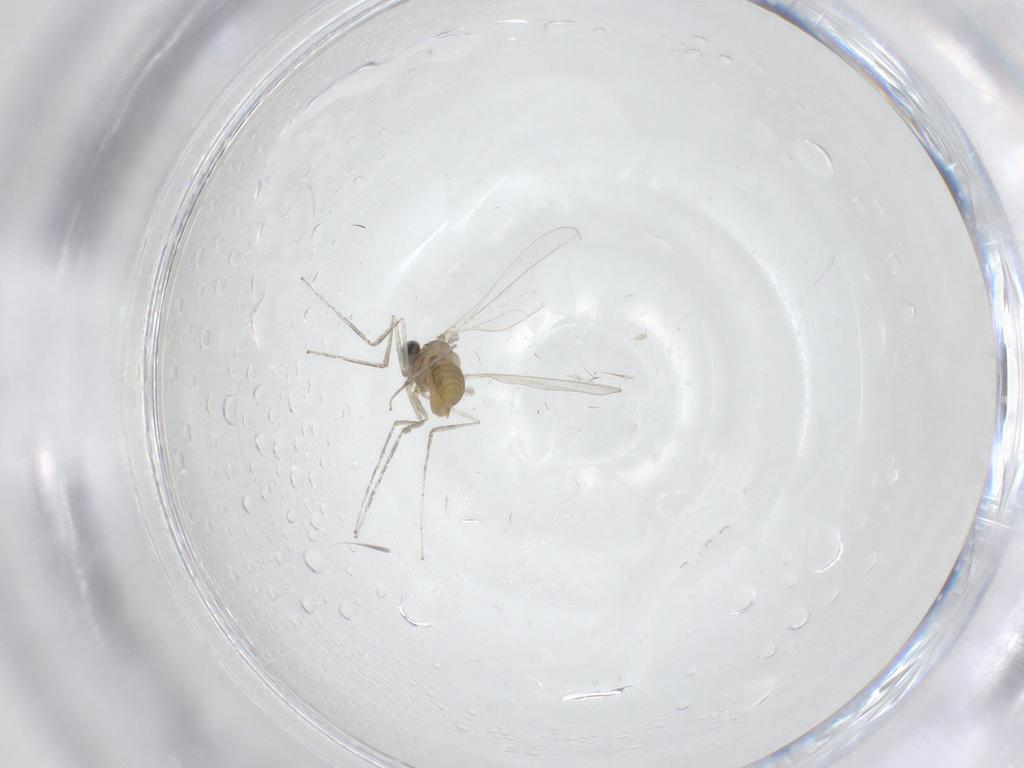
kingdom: Animalia
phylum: Arthropoda
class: Insecta
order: Diptera
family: Cecidomyiidae
